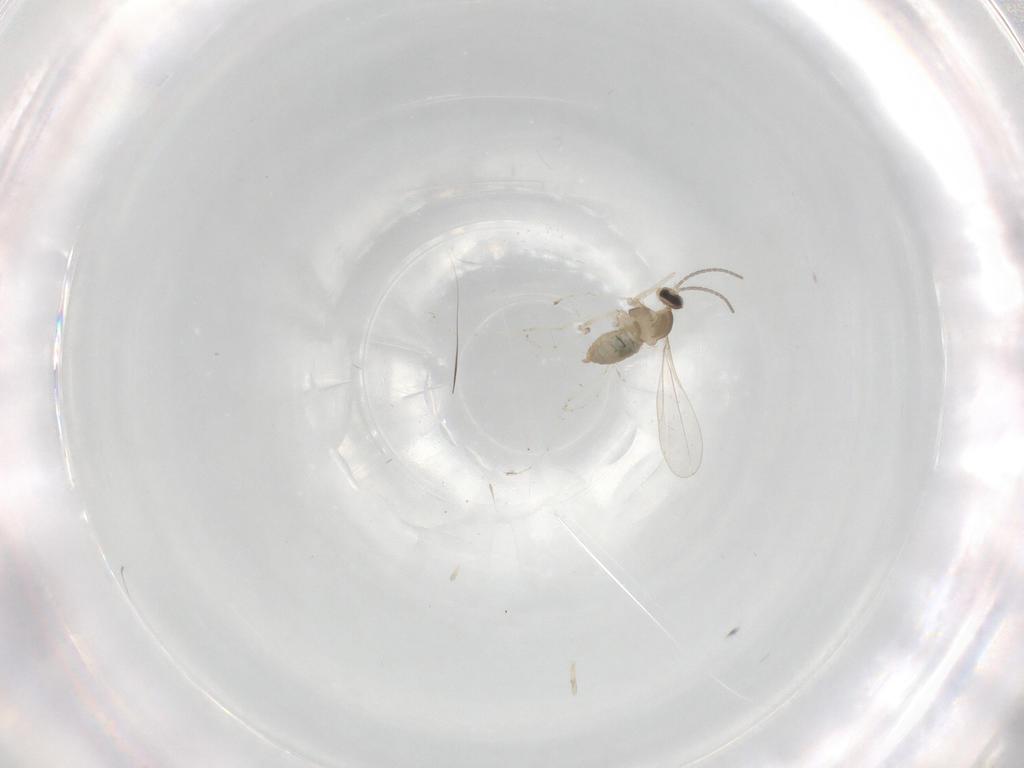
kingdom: Animalia
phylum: Arthropoda
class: Insecta
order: Diptera
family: Cecidomyiidae
